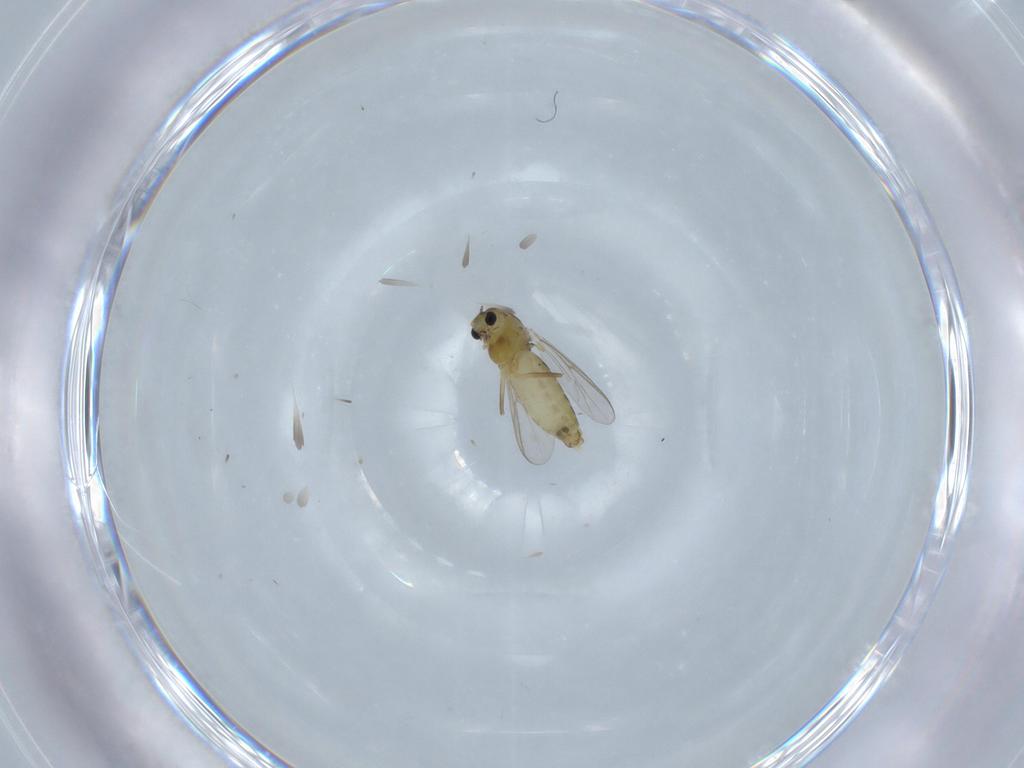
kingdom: Animalia
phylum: Arthropoda
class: Insecta
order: Diptera
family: Chironomidae
